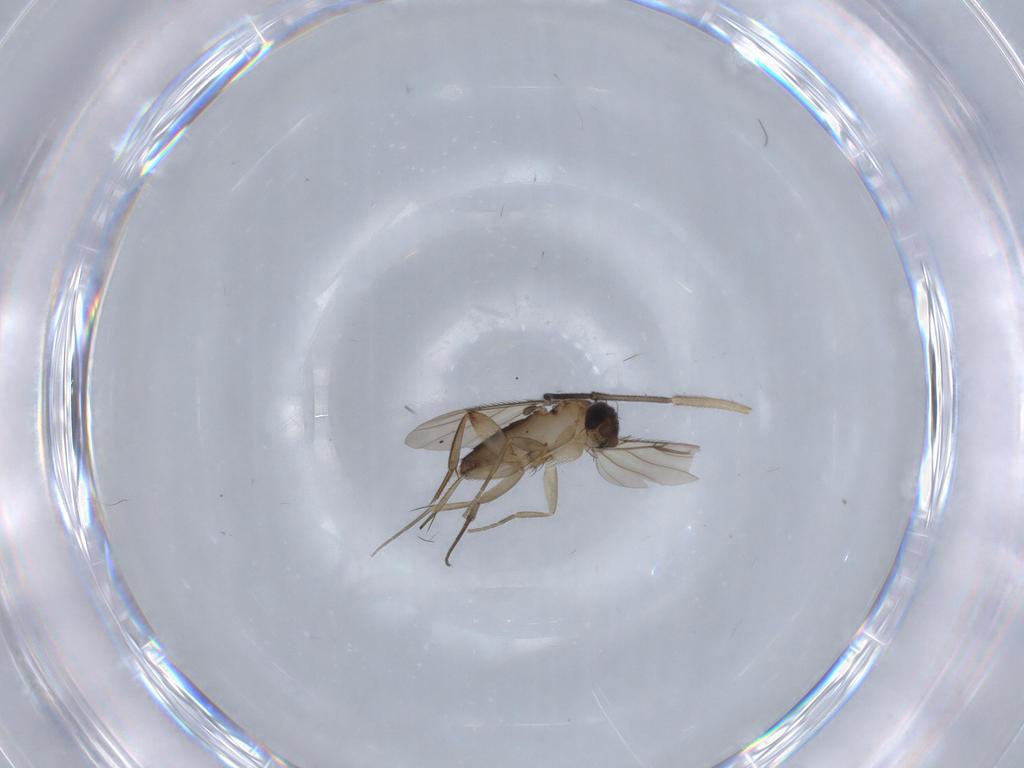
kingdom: Animalia
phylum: Arthropoda
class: Insecta
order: Diptera
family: Phoridae
